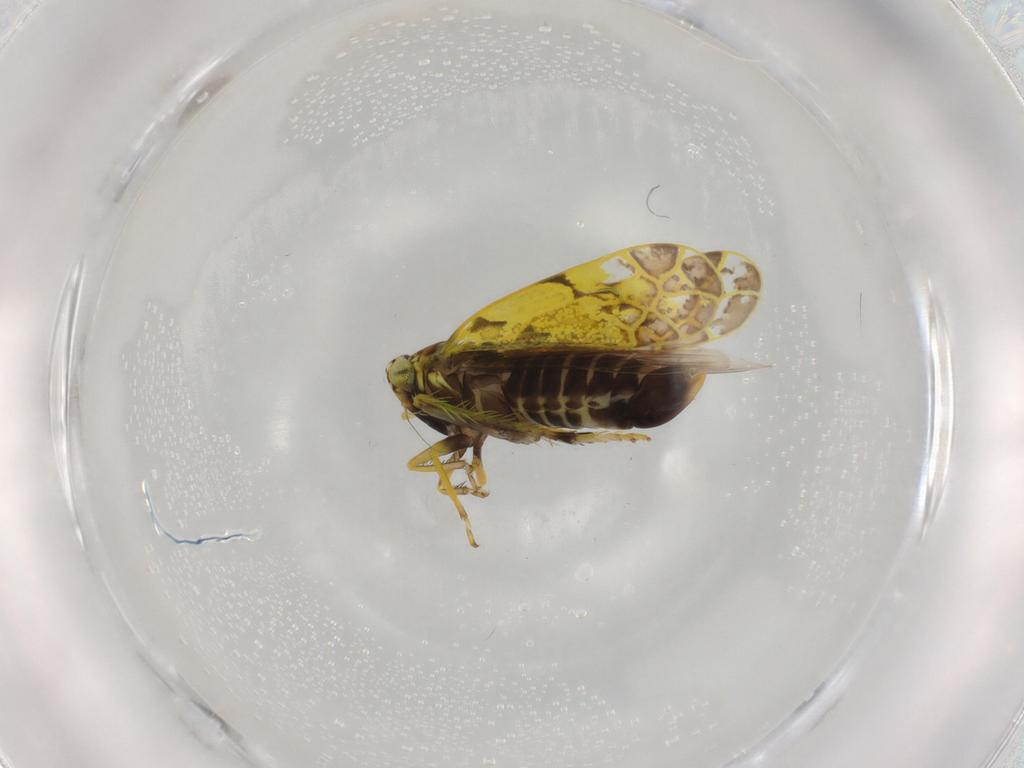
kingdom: Animalia
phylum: Arthropoda
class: Insecta
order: Hemiptera
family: Cicadellidae
